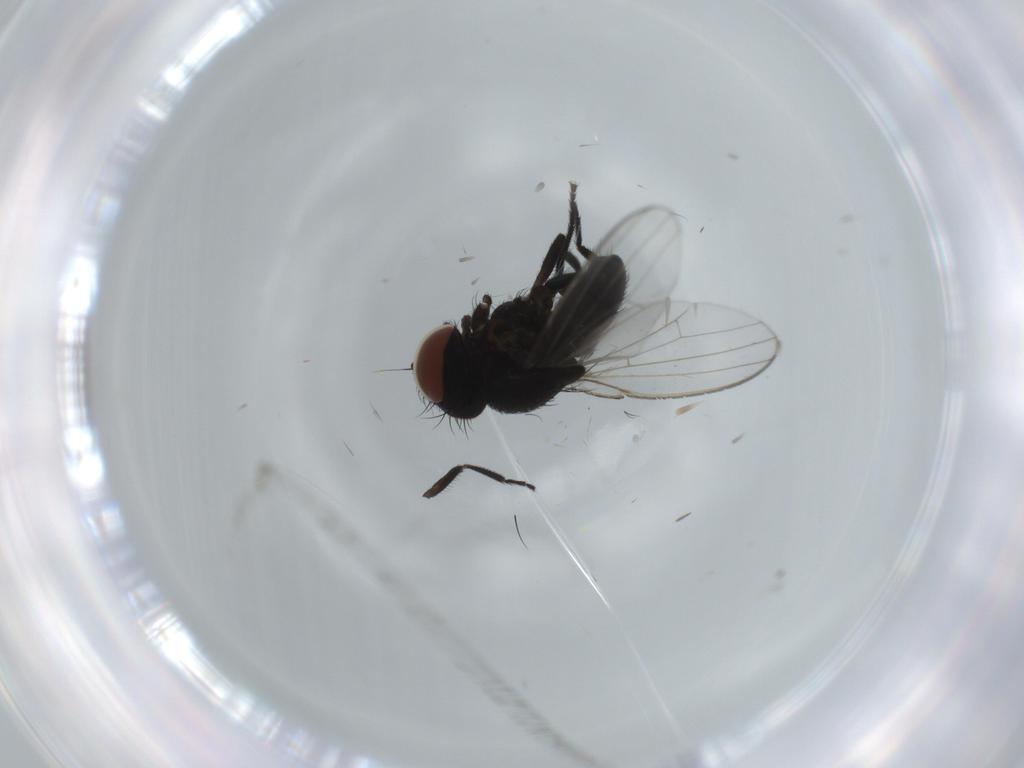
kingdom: Animalia
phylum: Arthropoda
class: Insecta
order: Diptera
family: Milichiidae
